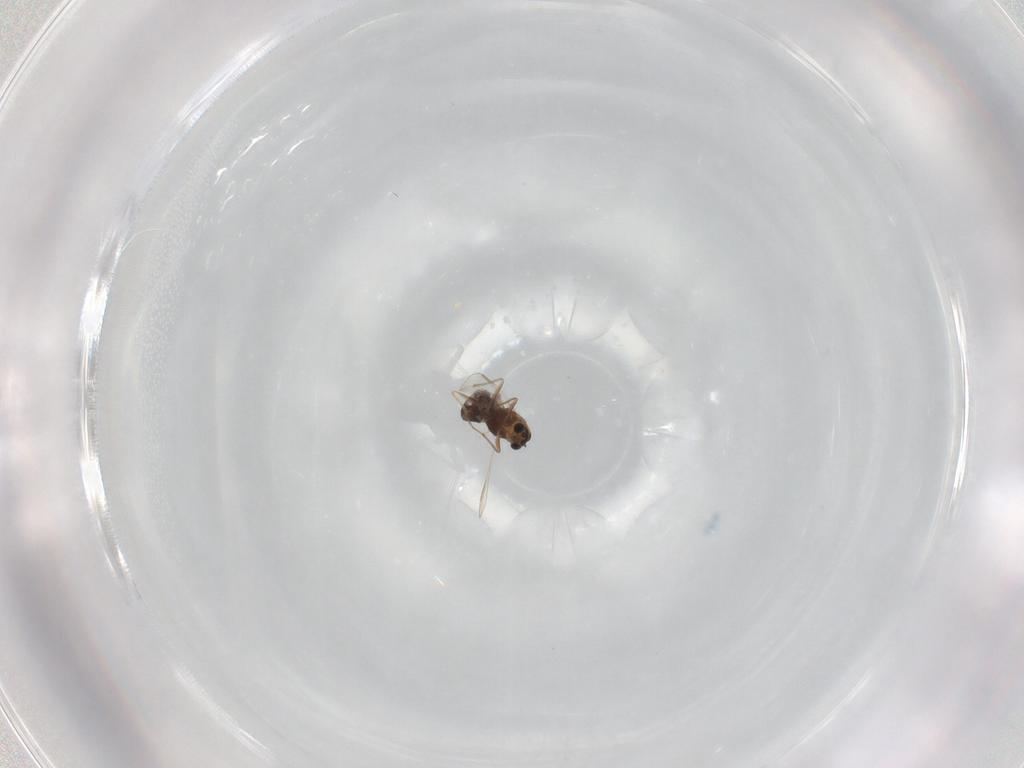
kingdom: Animalia
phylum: Arthropoda
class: Insecta
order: Diptera
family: Chironomidae
